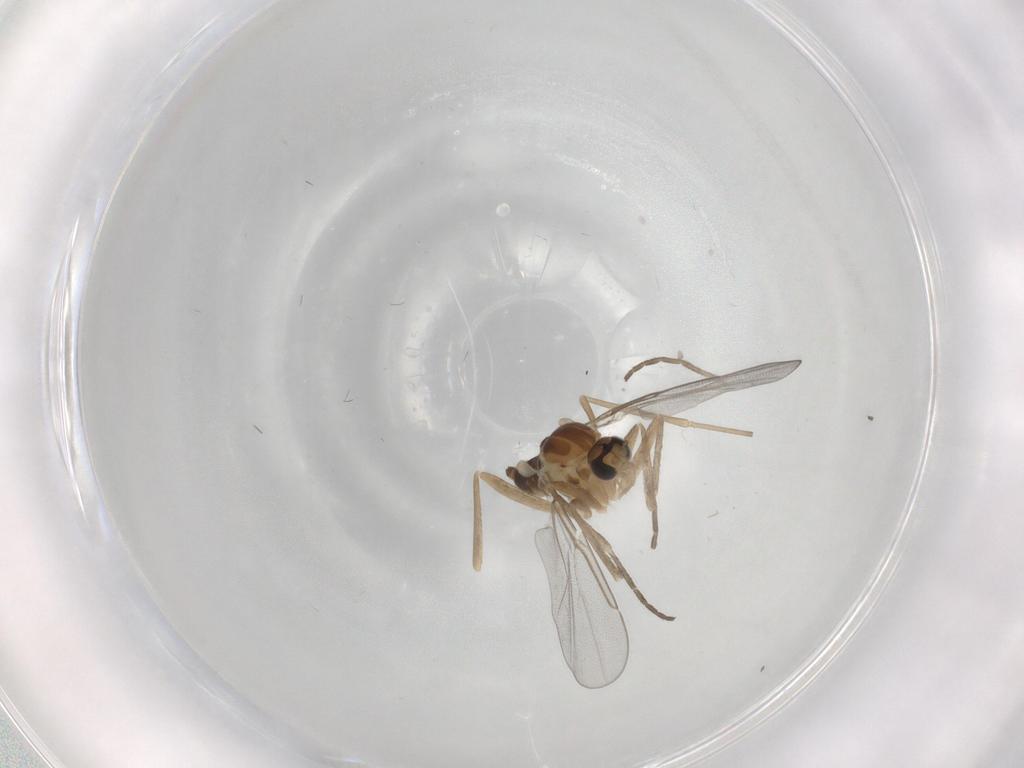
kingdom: Animalia
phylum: Arthropoda
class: Insecta
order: Diptera
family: Cecidomyiidae
